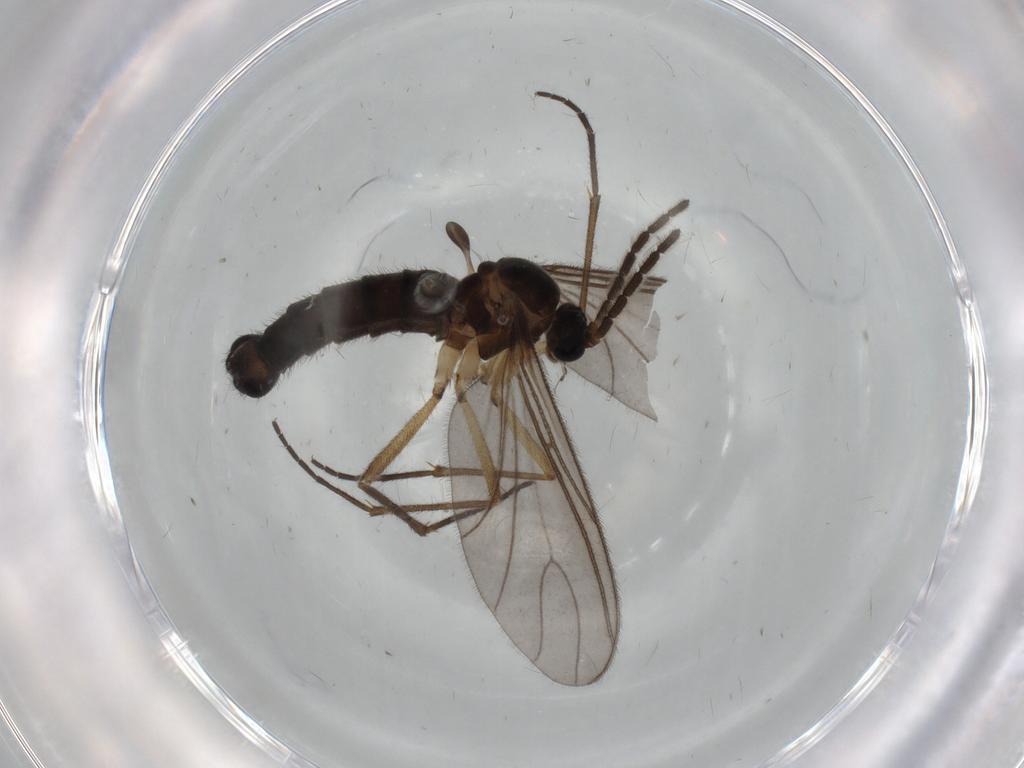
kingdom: Animalia
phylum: Arthropoda
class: Insecta
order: Diptera
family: Sciaridae
